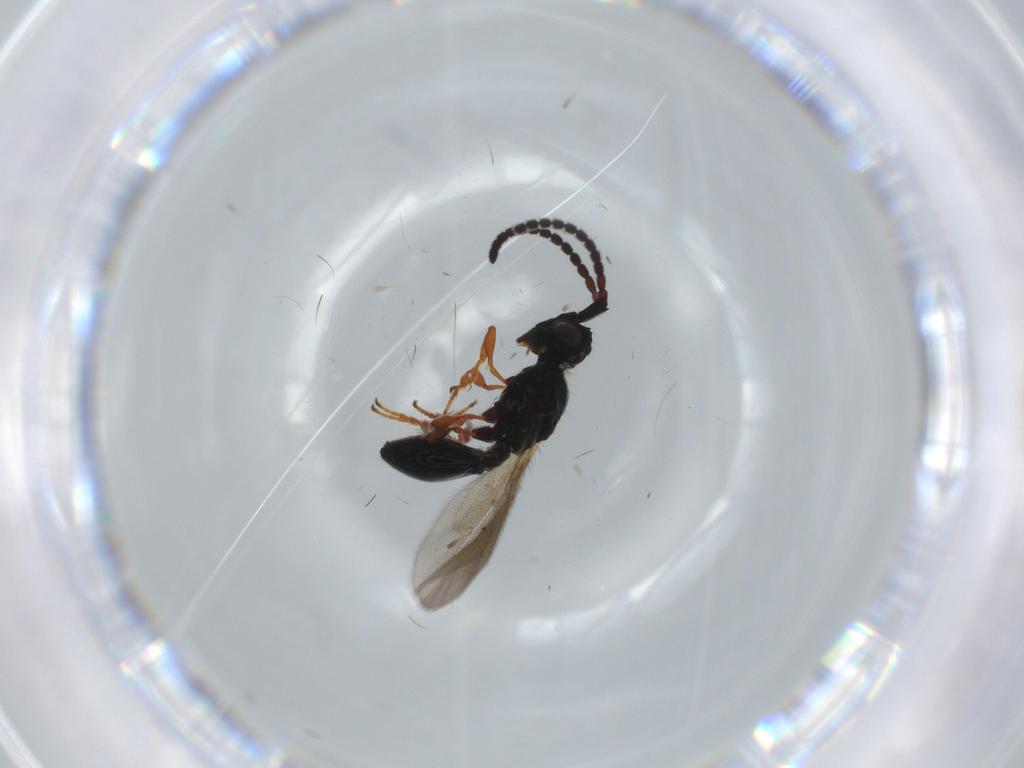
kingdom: Animalia
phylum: Arthropoda
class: Insecta
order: Hymenoptera
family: Diapriidae
